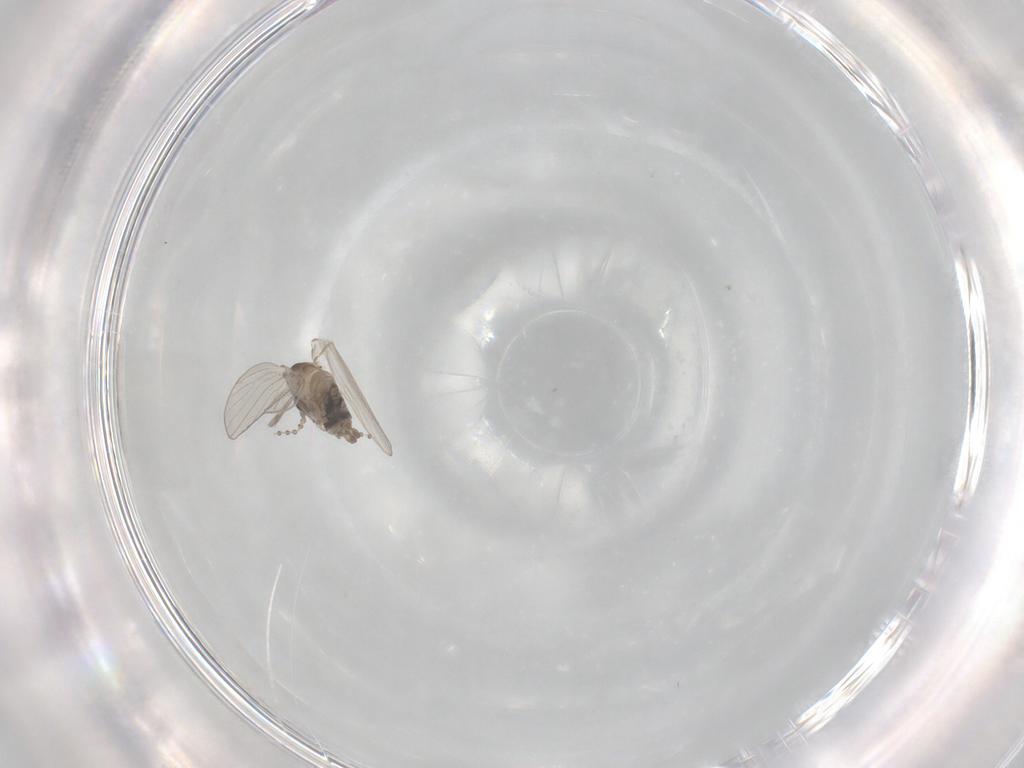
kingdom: Animalia
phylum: Arthropoda
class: Insecta
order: Diptera
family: Psychodidae
